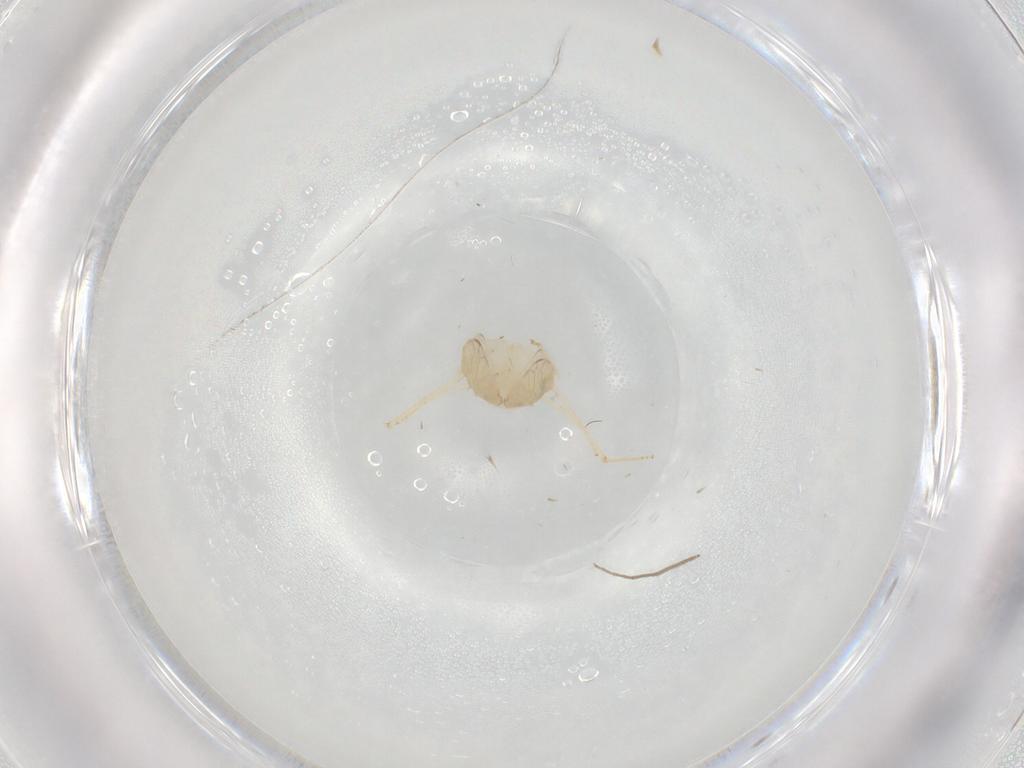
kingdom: Animalia
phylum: Arthropoda
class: Insecta
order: Psocodea
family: Lepidopsocidae
